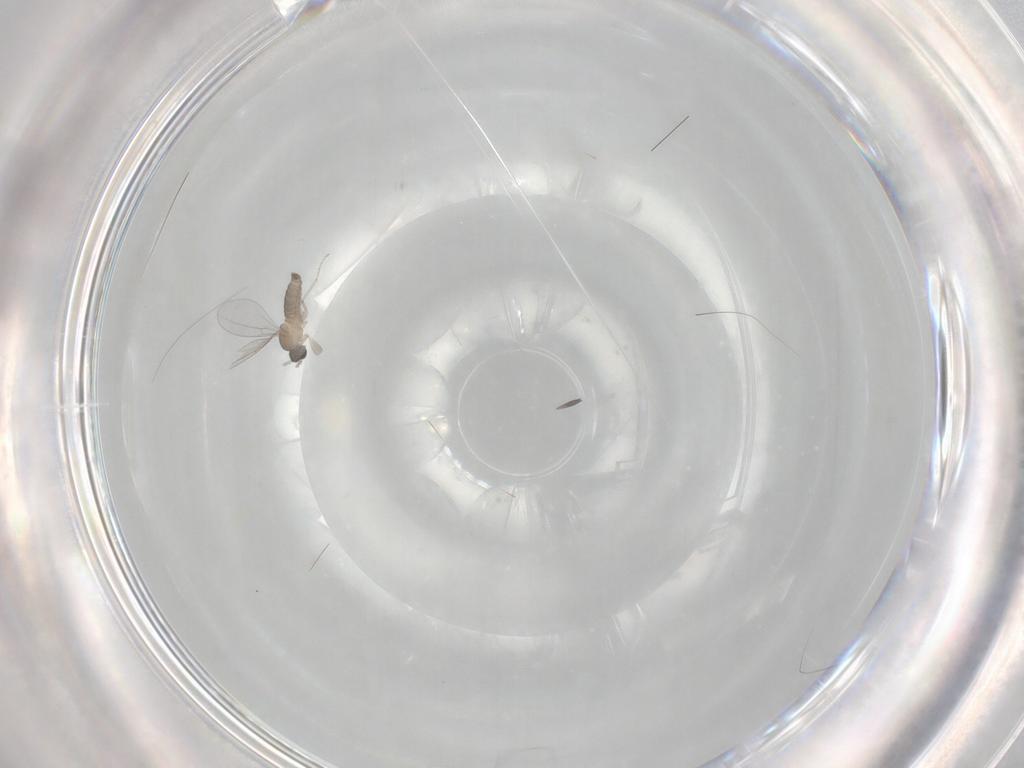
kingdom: Animalia
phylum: Arthropoda
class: Insecta
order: Diptera
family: Cecidomyiidae
